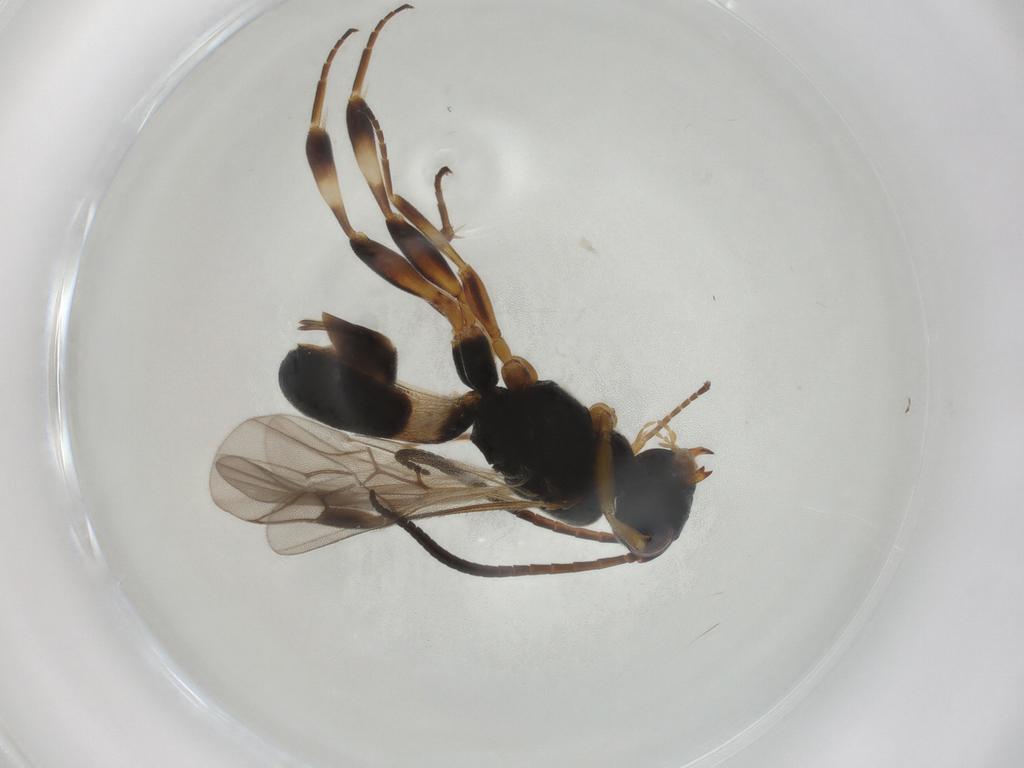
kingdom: Animalia
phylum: Arthropoda
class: Insecta
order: Hymenoptera
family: Braconidae
